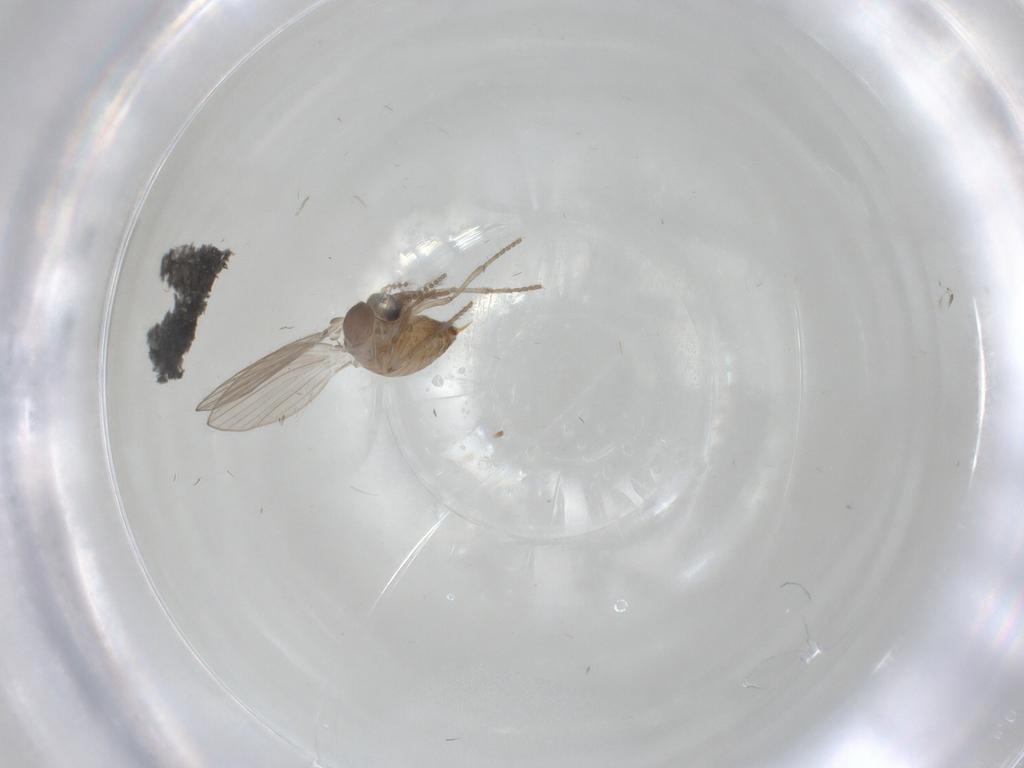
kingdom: Animalia
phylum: Arthropoda
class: Insecta
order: Diptera
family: Psychodidae
